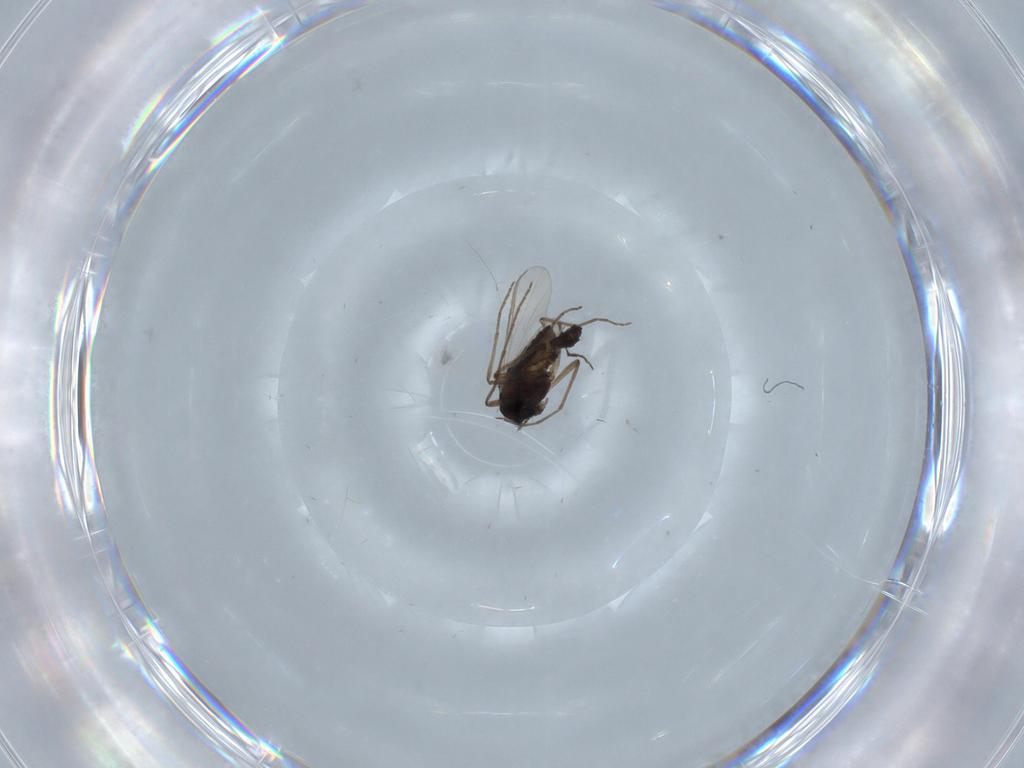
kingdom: Animalia
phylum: Arthropoda
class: Insecta
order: Diptera
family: Chironomidae
